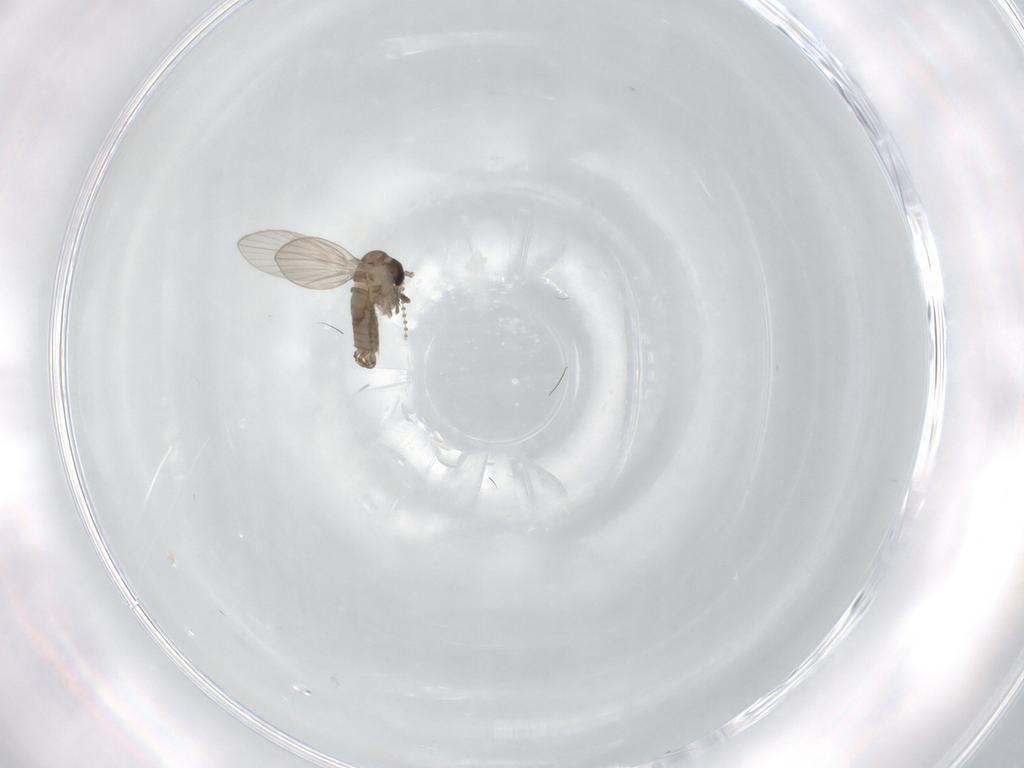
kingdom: Animalia
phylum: Arthropoda
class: Insecta
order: Diptera
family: Psychodidae
